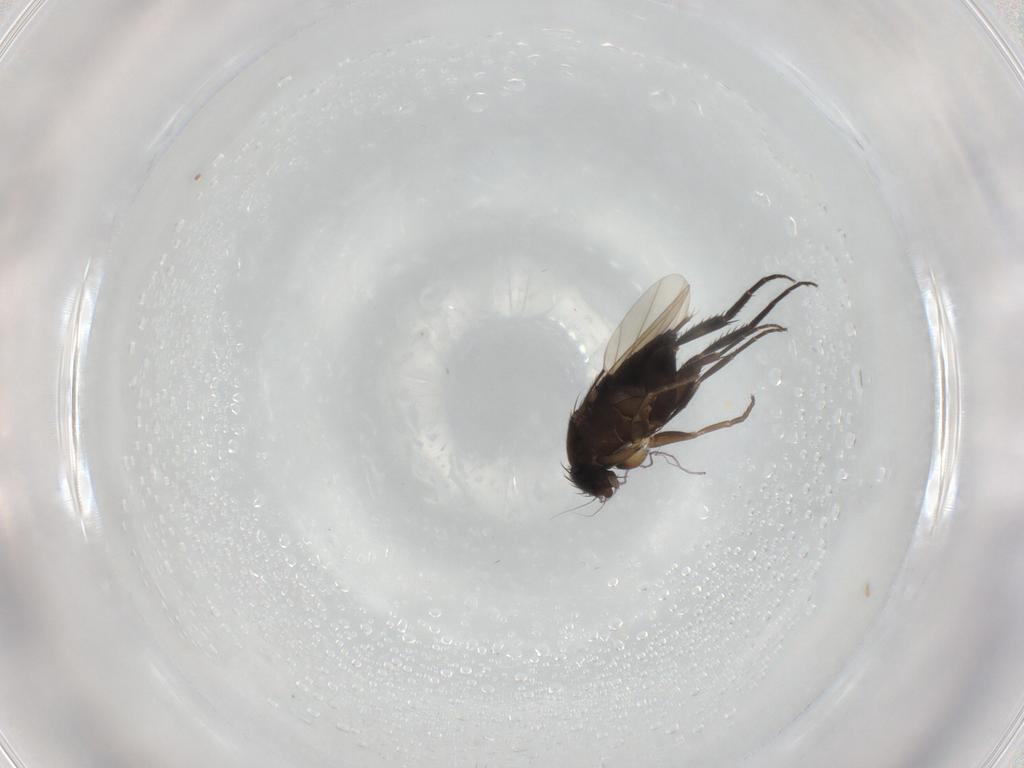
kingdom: Animalia
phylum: Arthropoda
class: Insecta
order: Diptera
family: Phoridae
